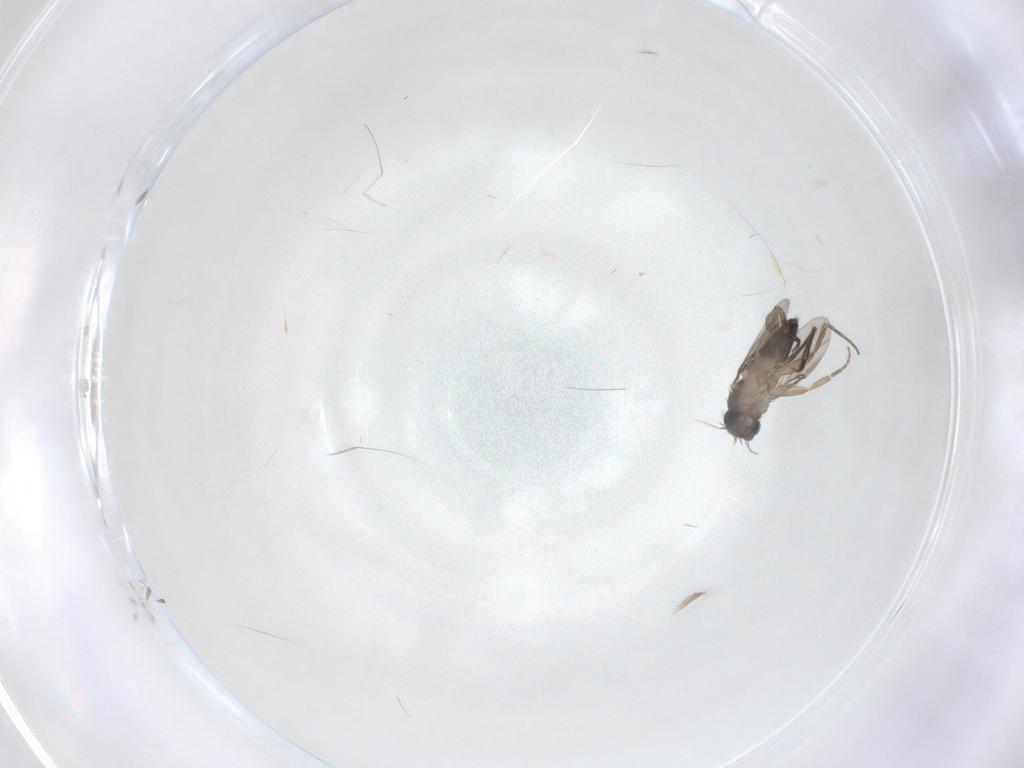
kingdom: Animalia
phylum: Arthropoda
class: Insecta
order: Diptera
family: Phoridae
